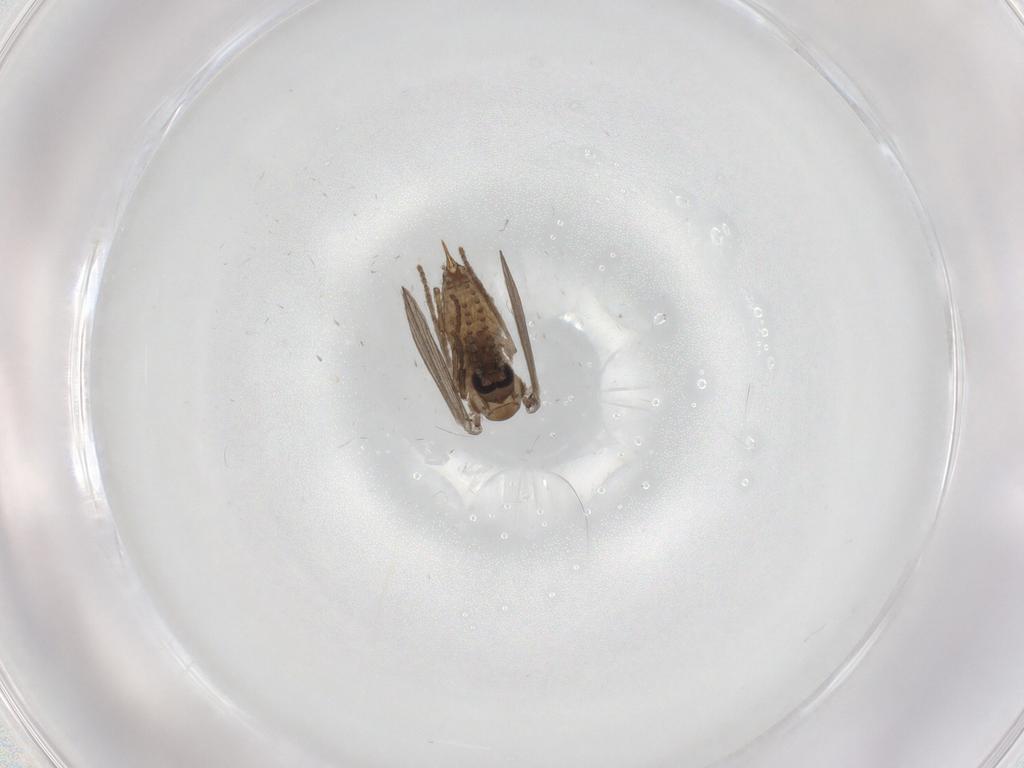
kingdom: Animalia
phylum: Arthropoda
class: Insecta
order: Diptera
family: Psychodidae
